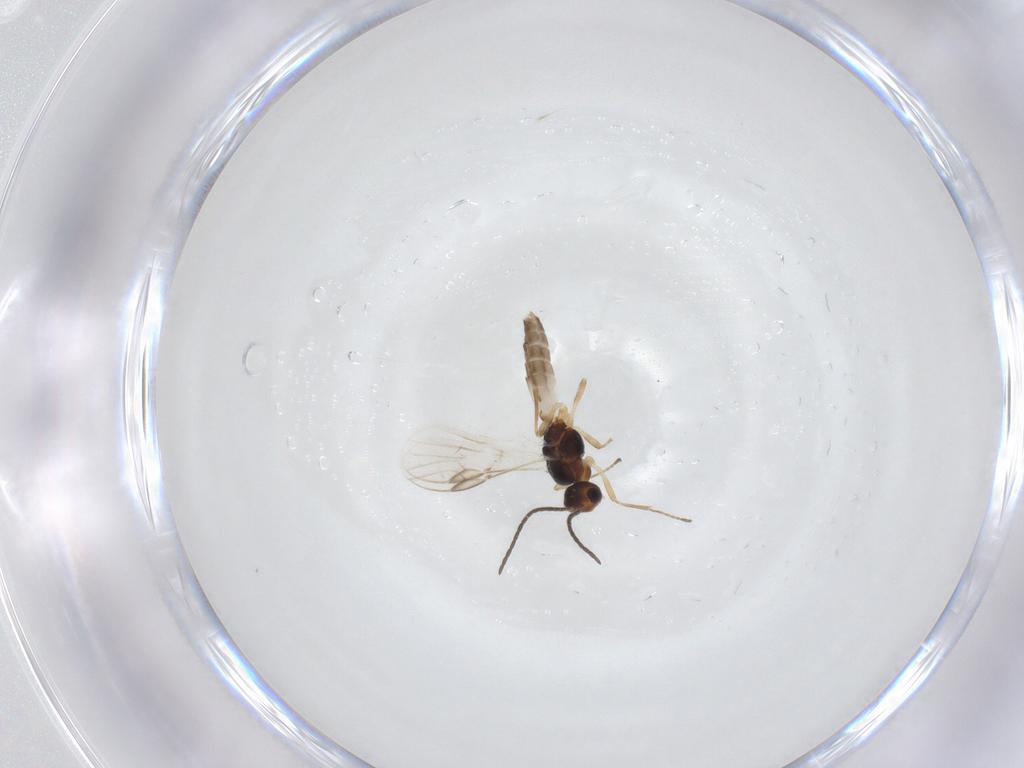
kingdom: Animalia
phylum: Arthropoda
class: Insecta
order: Hymenoptera
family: Braconidae
